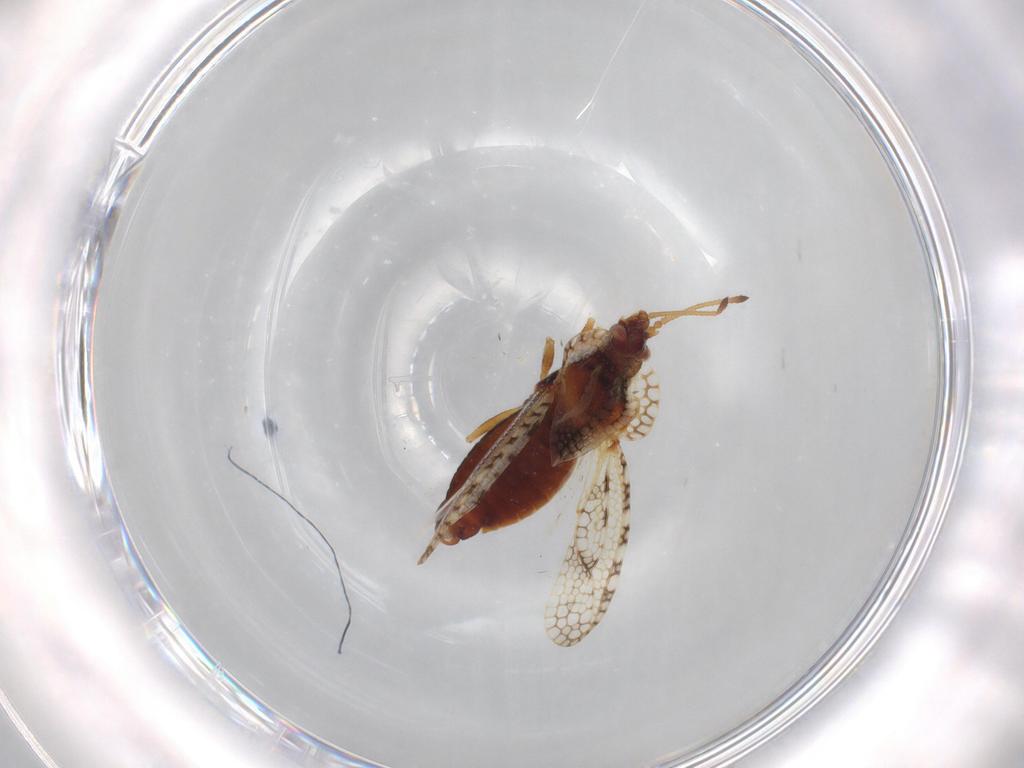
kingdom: Animalia
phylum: Arthropoda
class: Insecta
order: Hemiptera
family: Tingidae
